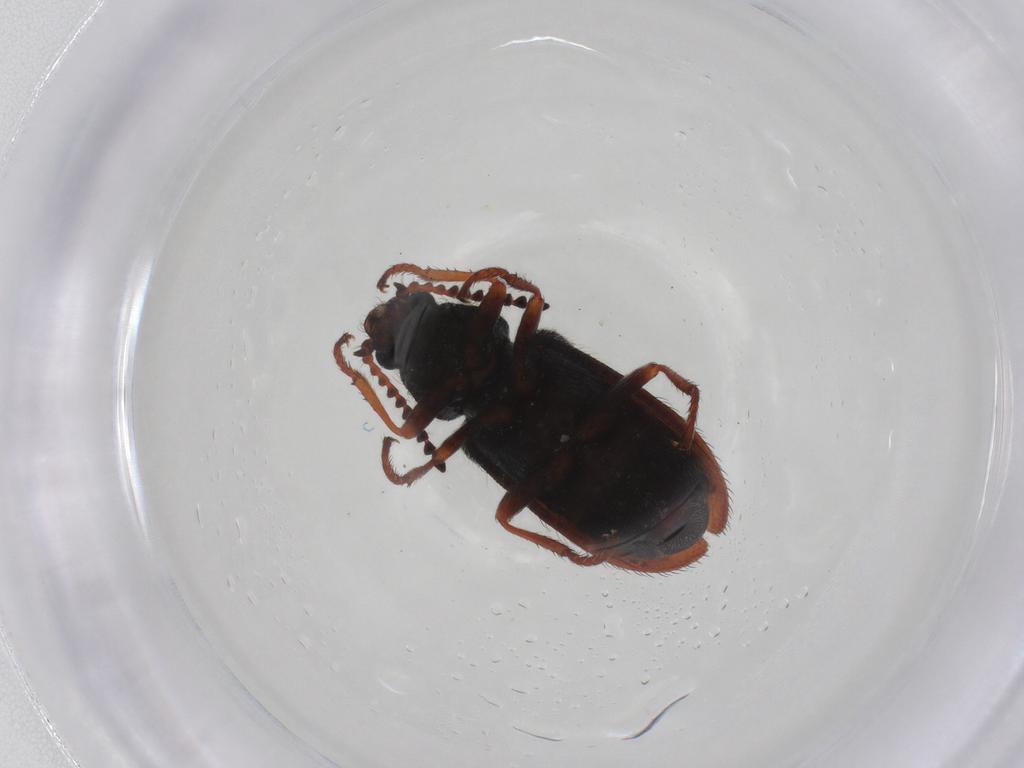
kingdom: Animalia
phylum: Arthropoda
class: Insecta
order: Coleoptera
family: Melyridae
